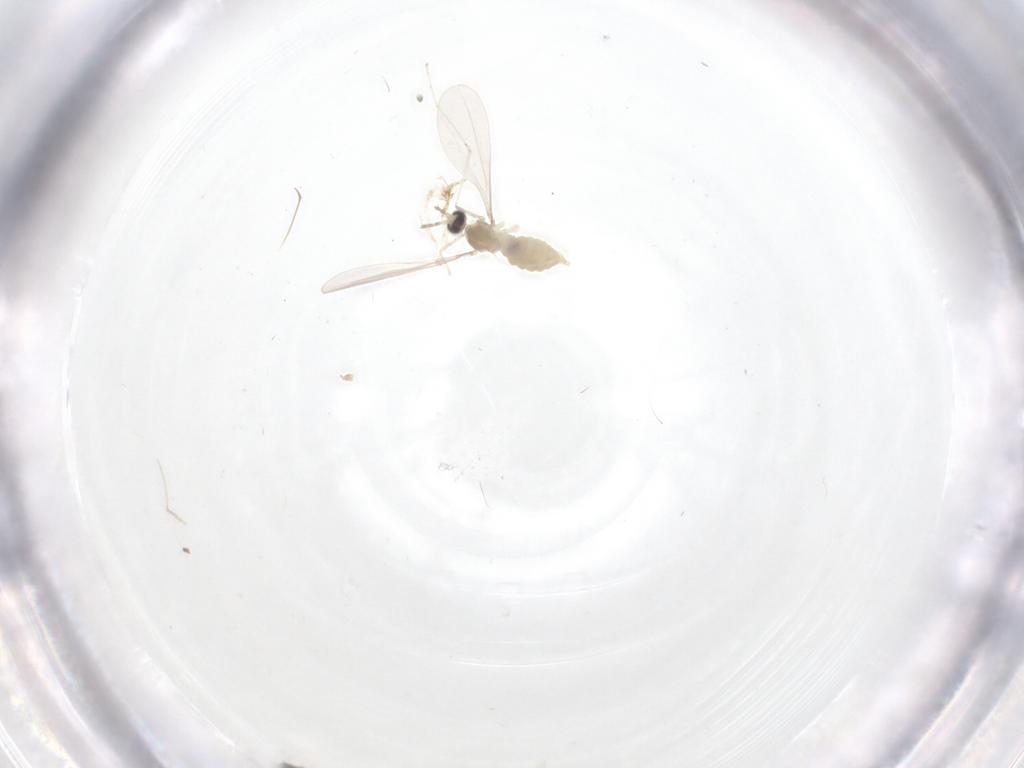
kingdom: Animalia
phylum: Arthropoda
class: Insecta
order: Diptera
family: Cecidomyiidae
